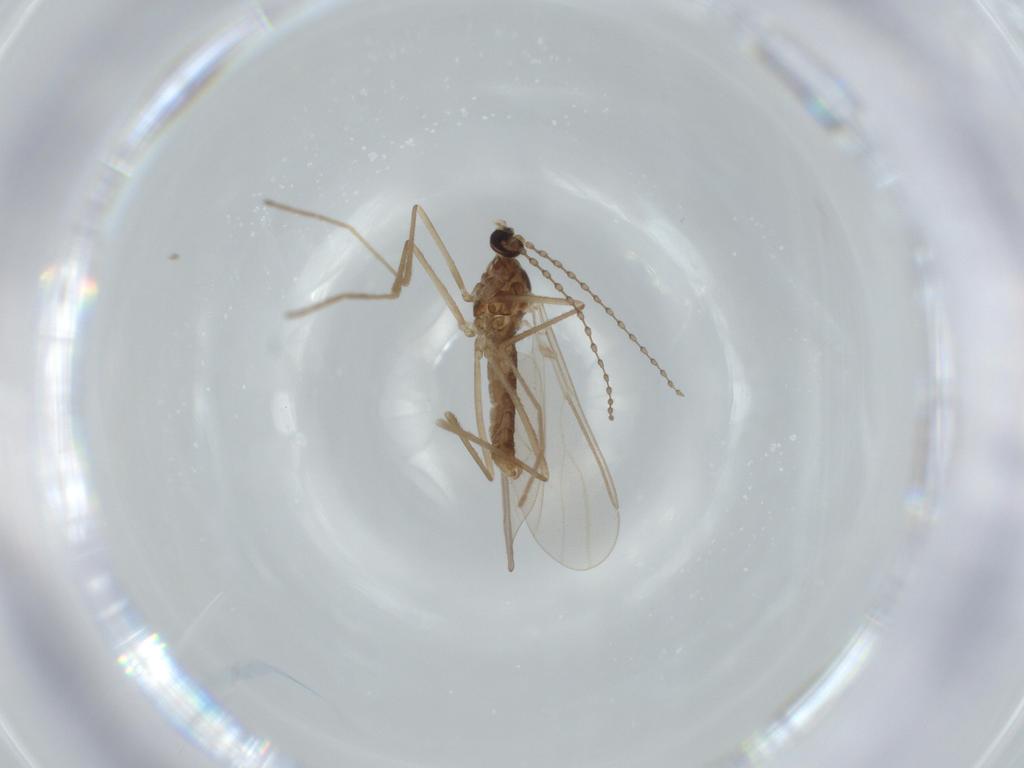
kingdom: Animalia
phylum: Arthropoda
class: Insecta
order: Diptera
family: Cecidomyiidae
